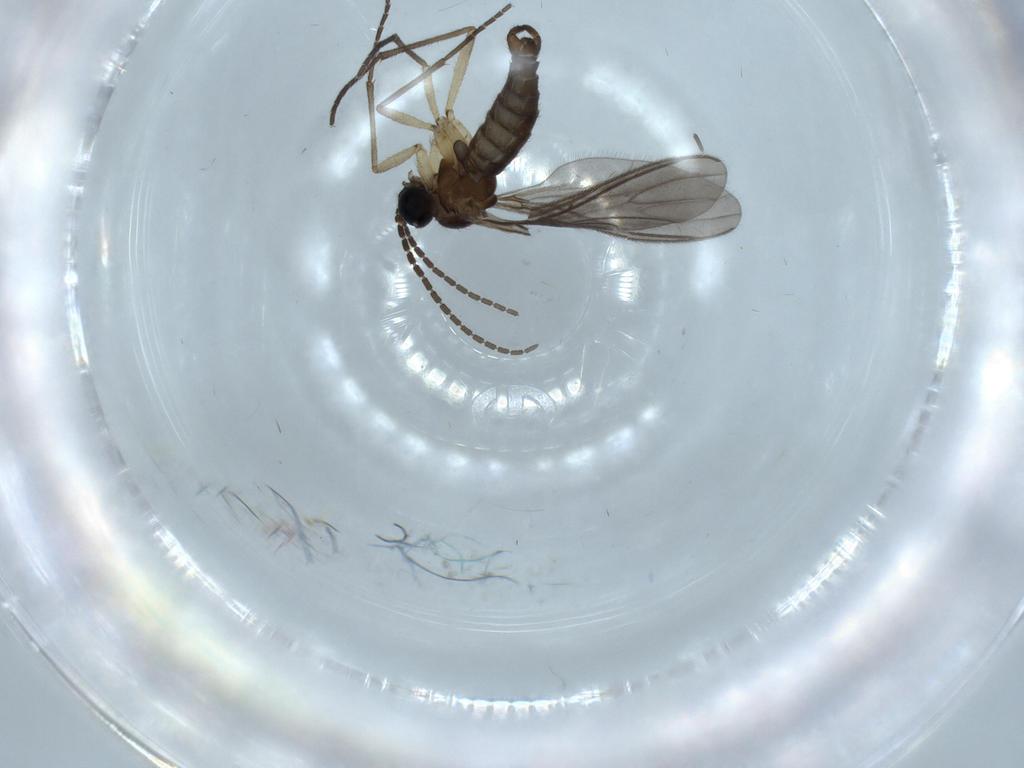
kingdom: Animalia
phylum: Arthropoda
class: Insecta
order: Diptera
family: Sciaridae
